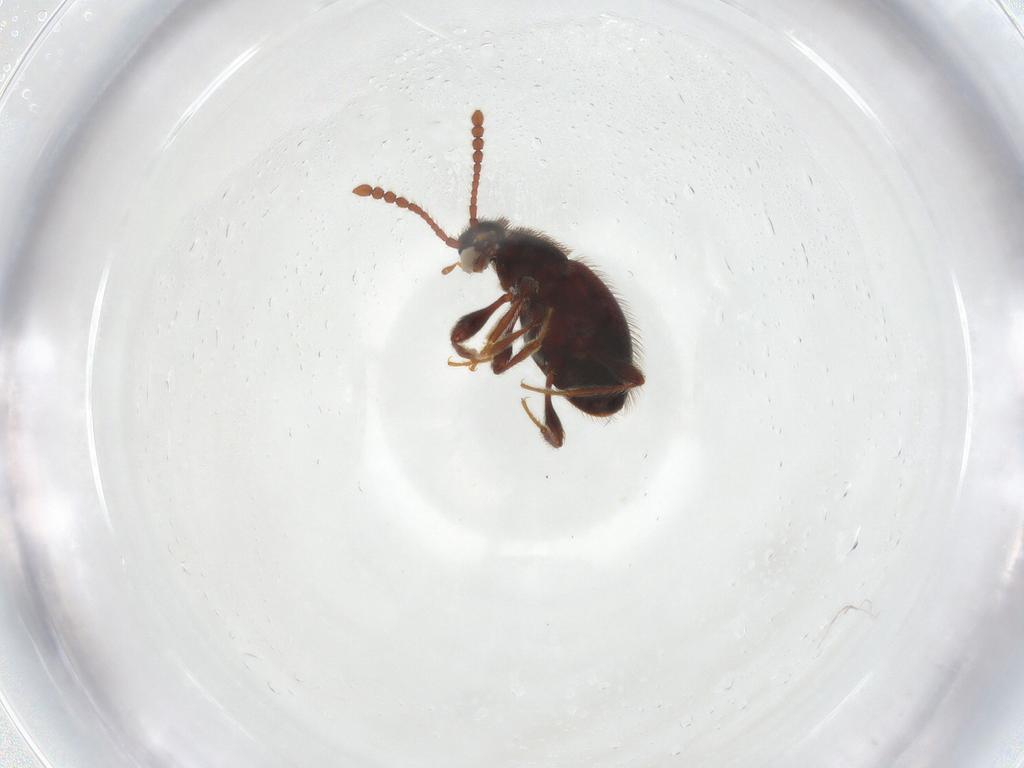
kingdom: Animalia
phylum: Arthropoda
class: Insecta
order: Coleoptera
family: Staphylinidae
